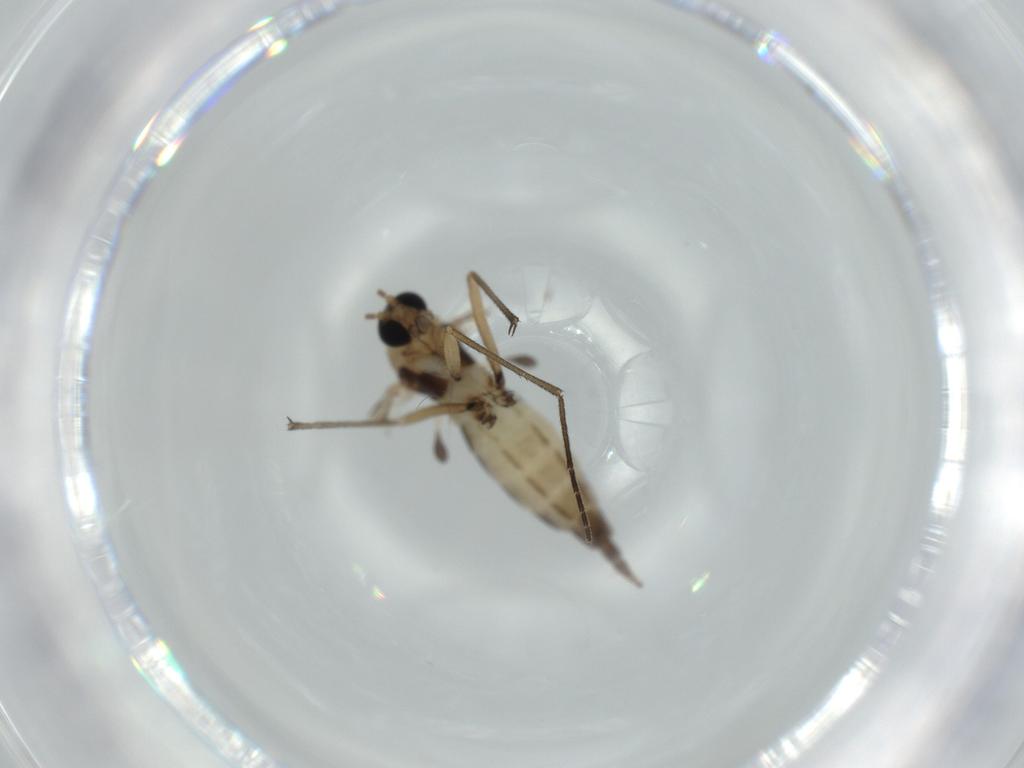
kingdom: Animalia
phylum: Arthropoda
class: Insecta
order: Diptera
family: Sciaridae
